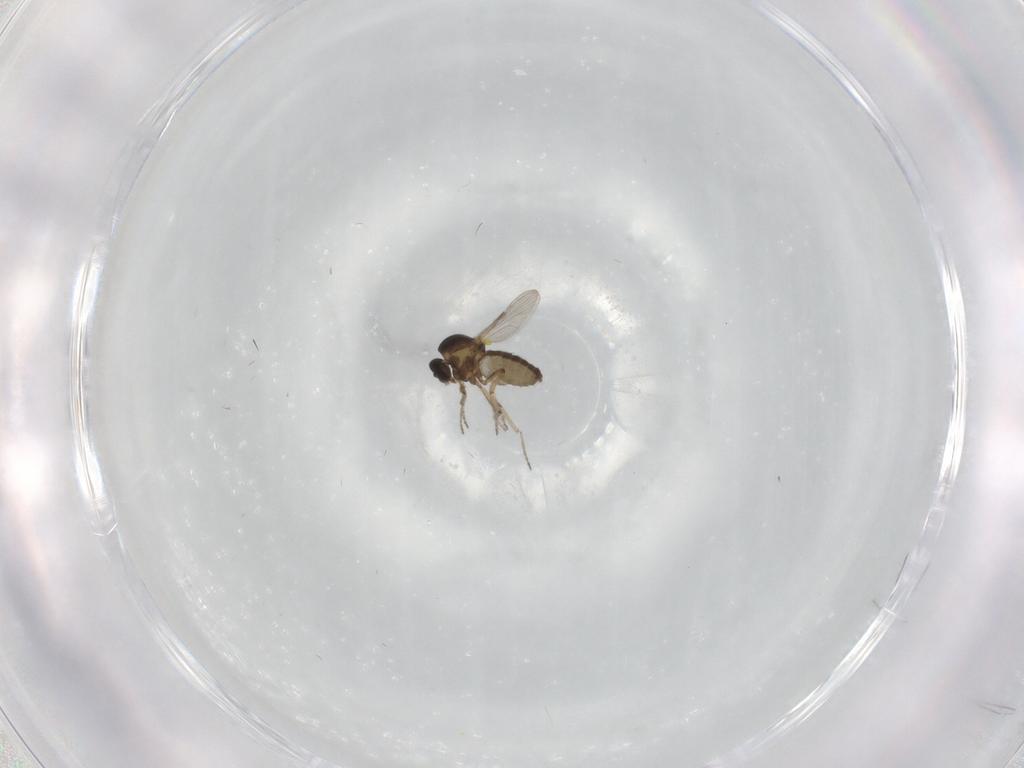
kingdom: Animalia
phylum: Arthropoda
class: Insecta
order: Diptera
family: Ceratopogonidae
